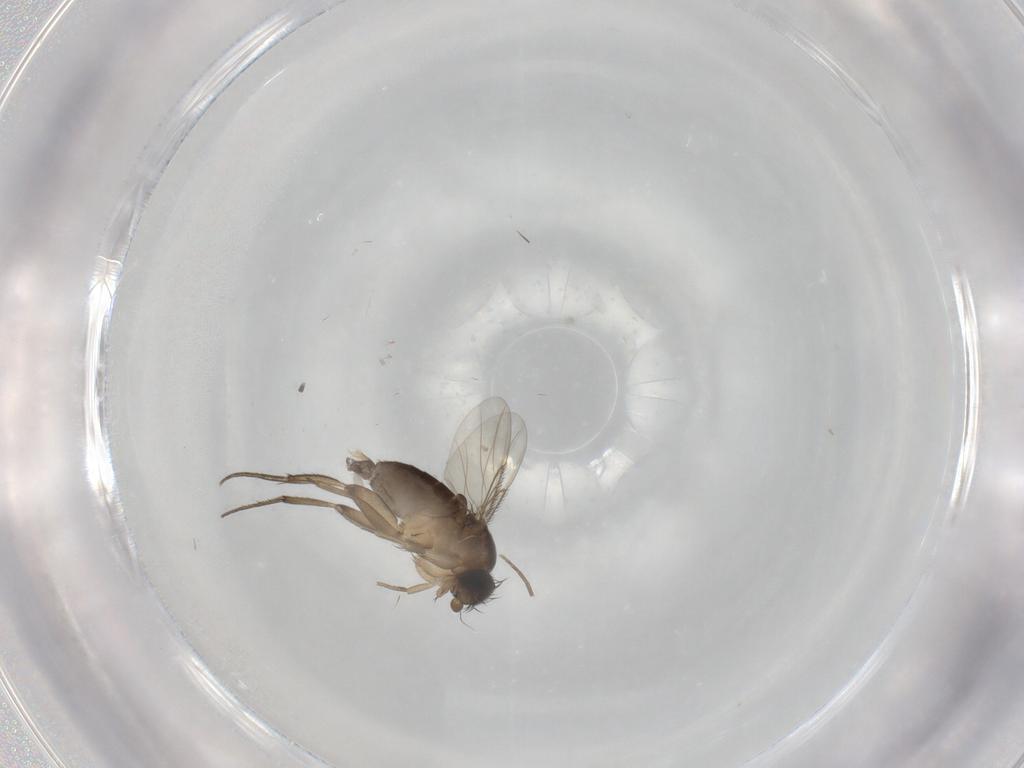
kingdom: Animalia
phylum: Arthropoda
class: Insecta
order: Diptera
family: Phoridae
